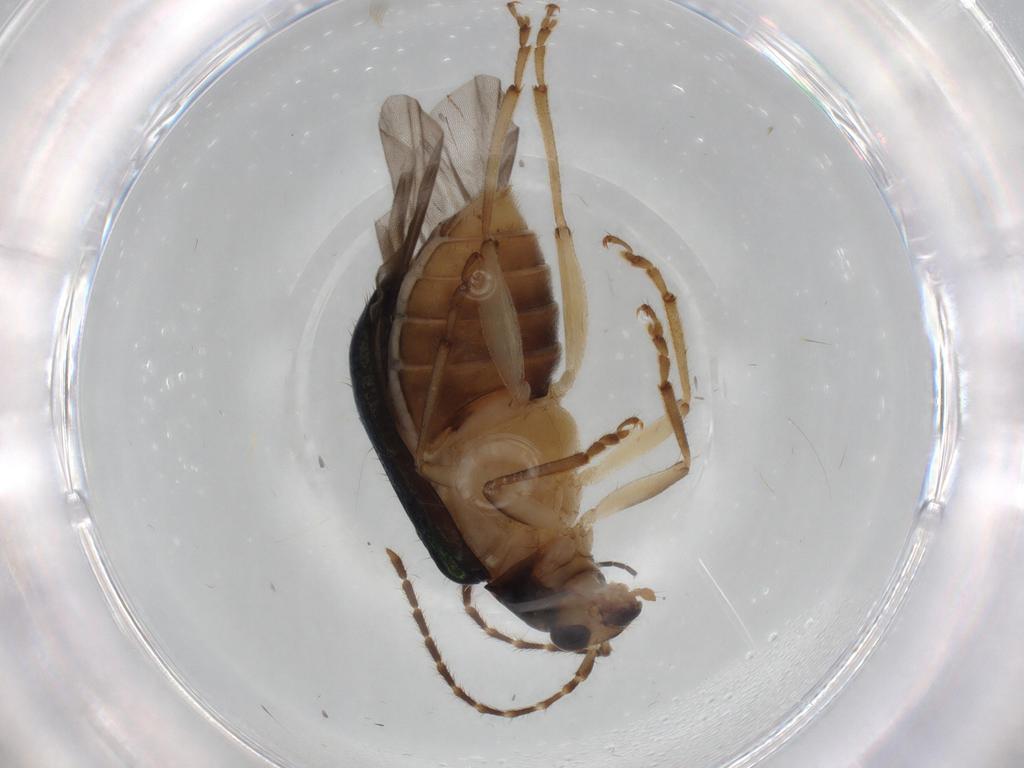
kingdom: Animalia
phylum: Arthropoda
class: Insecta
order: Coleoptera
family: Chrysomelidae
